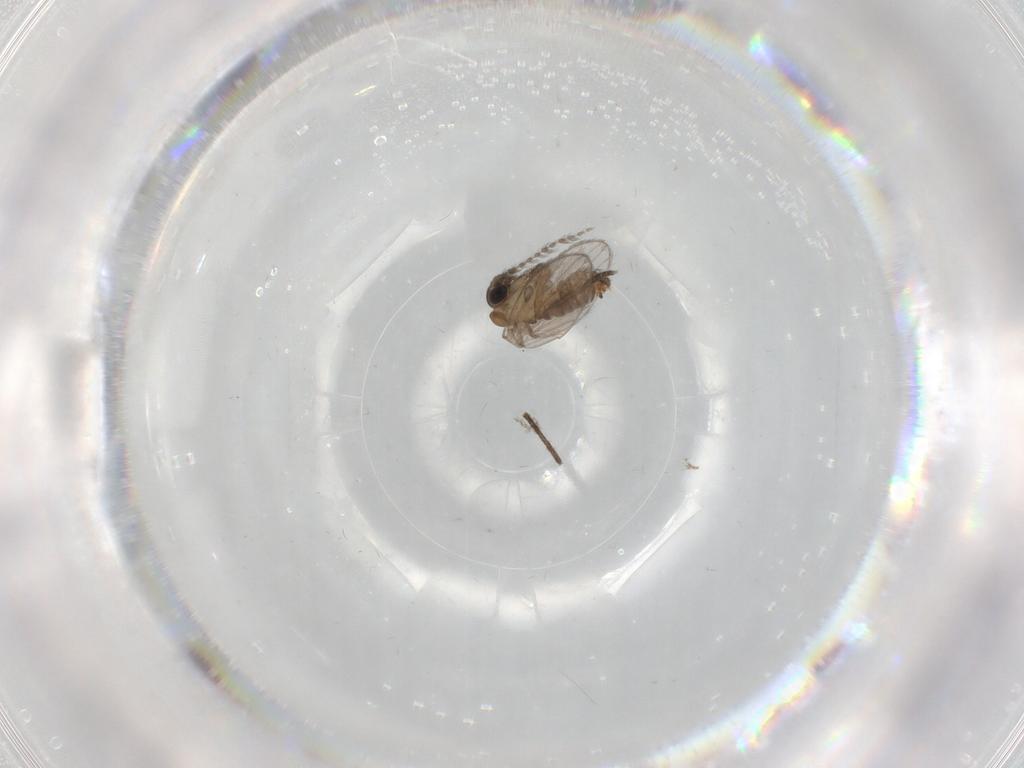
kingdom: Animalia
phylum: Arthropoda
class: Insecta
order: Diptera
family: Sciaridae
